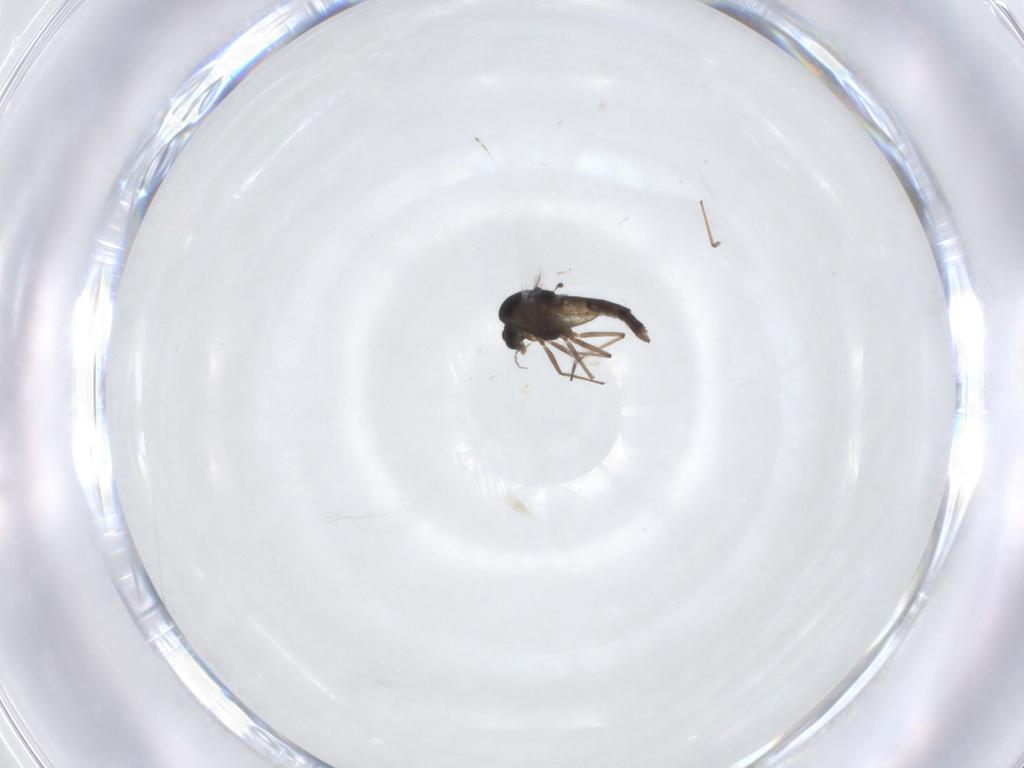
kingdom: Animalia
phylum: Arthropoda
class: Insecta
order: Diptera
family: Chironomidae
